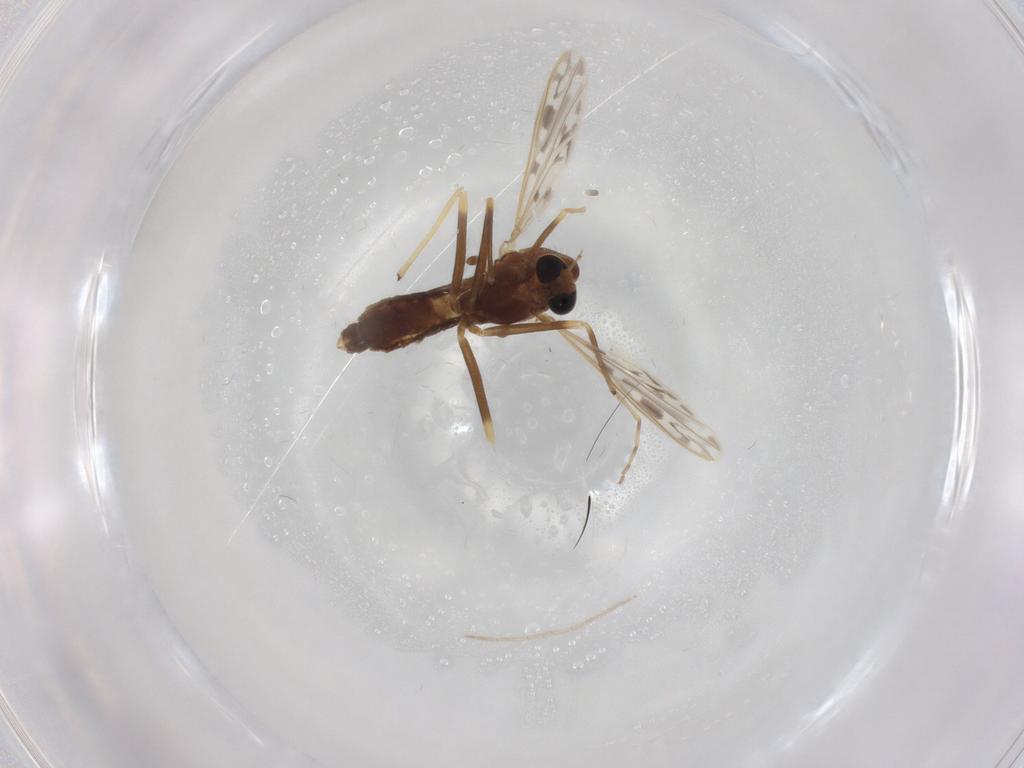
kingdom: Animalia
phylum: Arthropoda
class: Insecta
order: Diptera
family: Chironomidae
